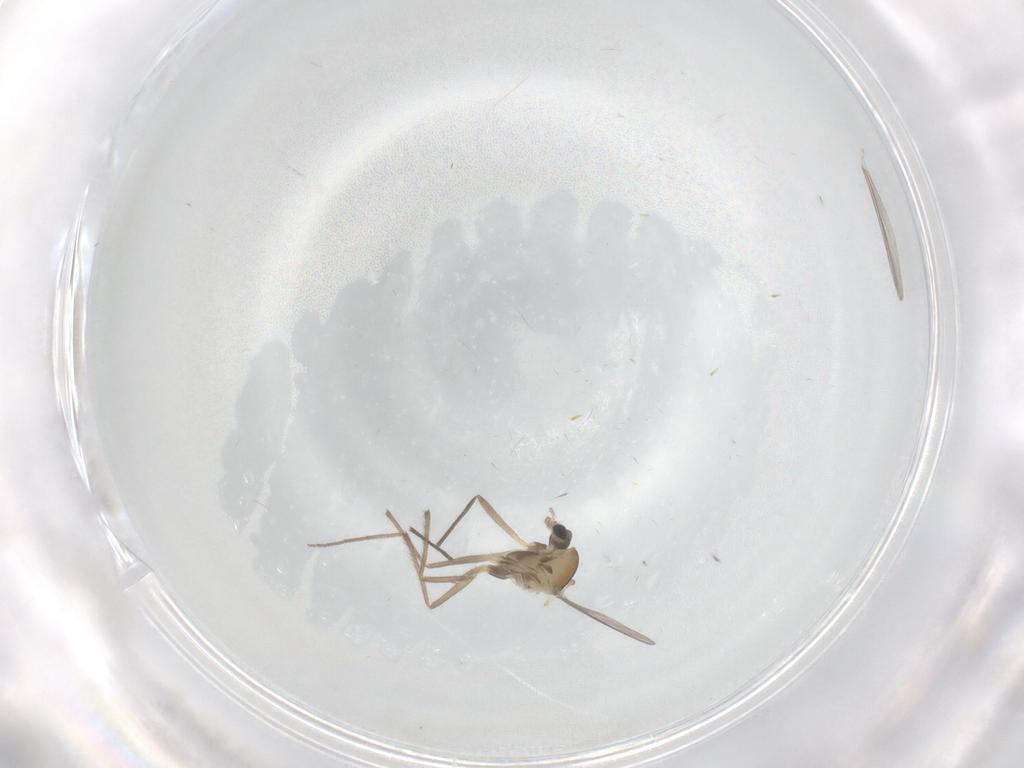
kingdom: Animalia
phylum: Arthropoda
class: Insecta
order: Diptera
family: Chironomidae
